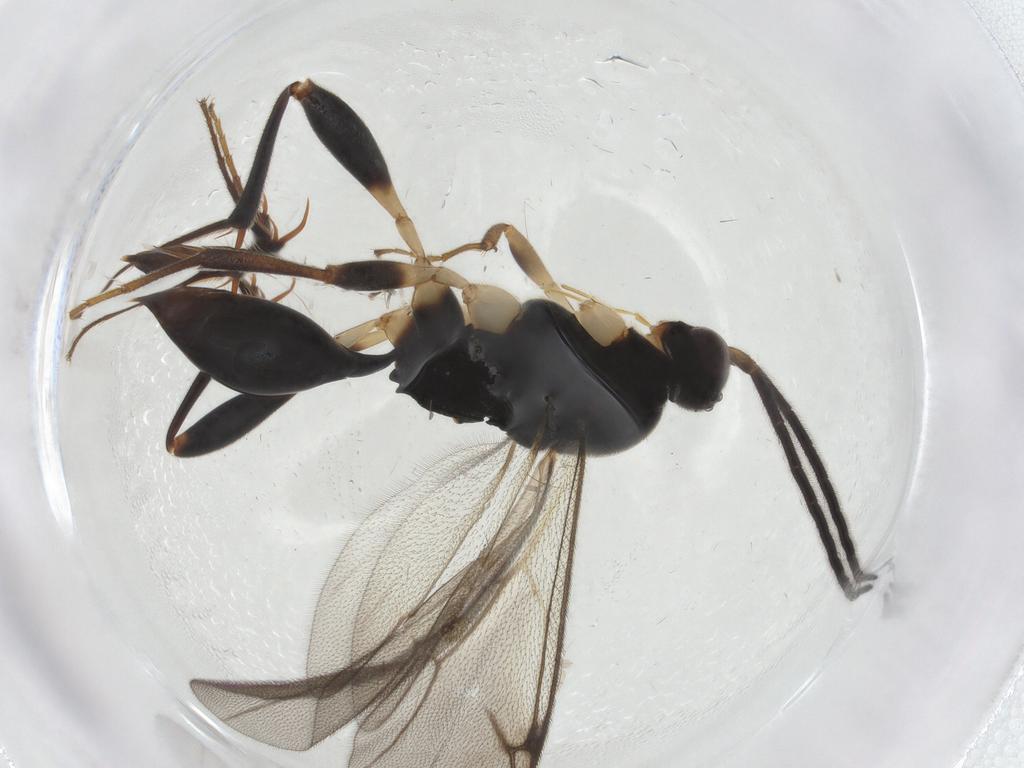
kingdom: Animalia
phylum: Arthropoda
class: Insecta
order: Hymenoptera
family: Proctotrupidae
